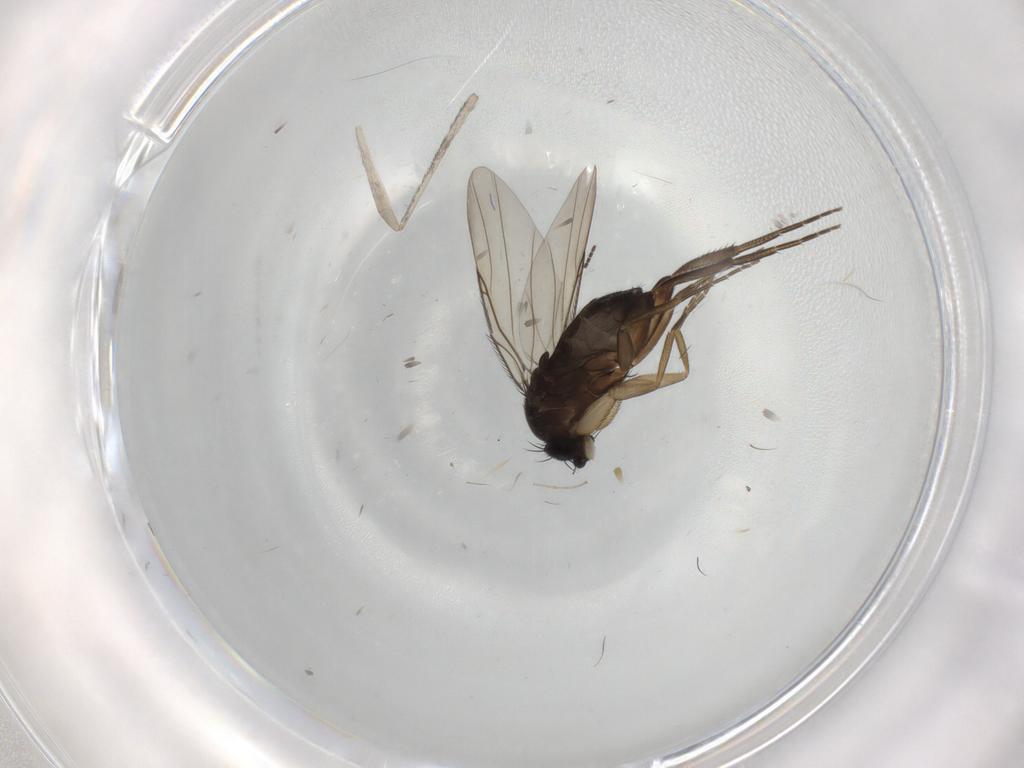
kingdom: Animalia
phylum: Arthropoda
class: Insecta
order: Diptera
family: Phoridae
